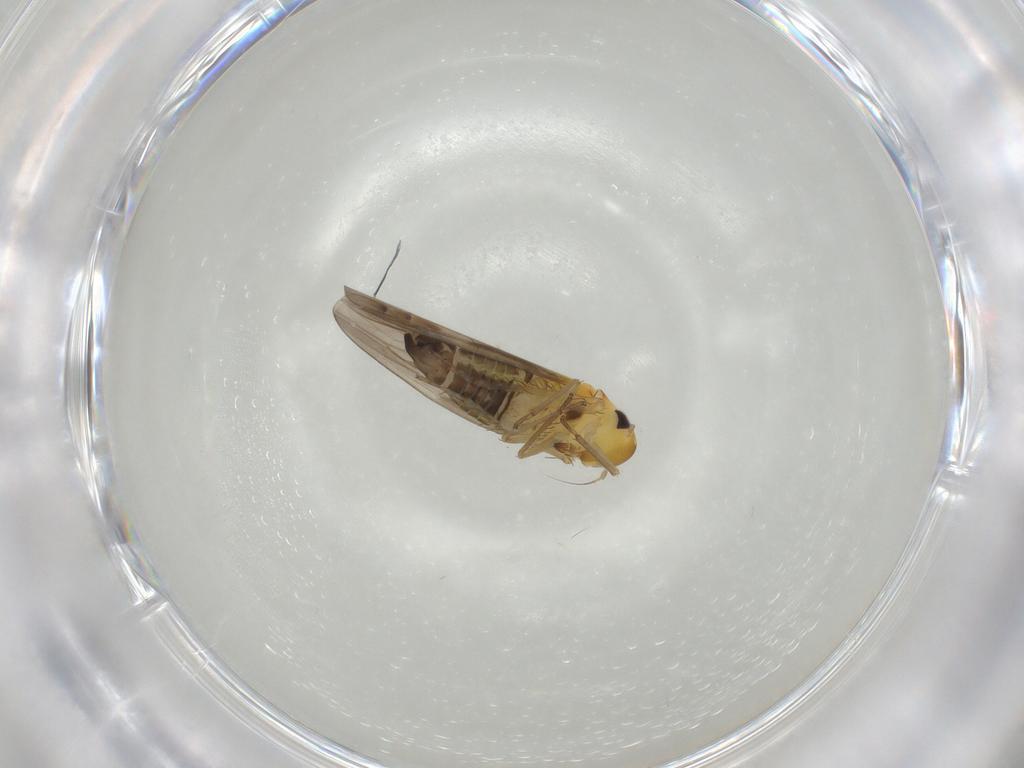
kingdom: Animalia
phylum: Arthropoda
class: Insecta
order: Hemiptera
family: Cicadellidae
